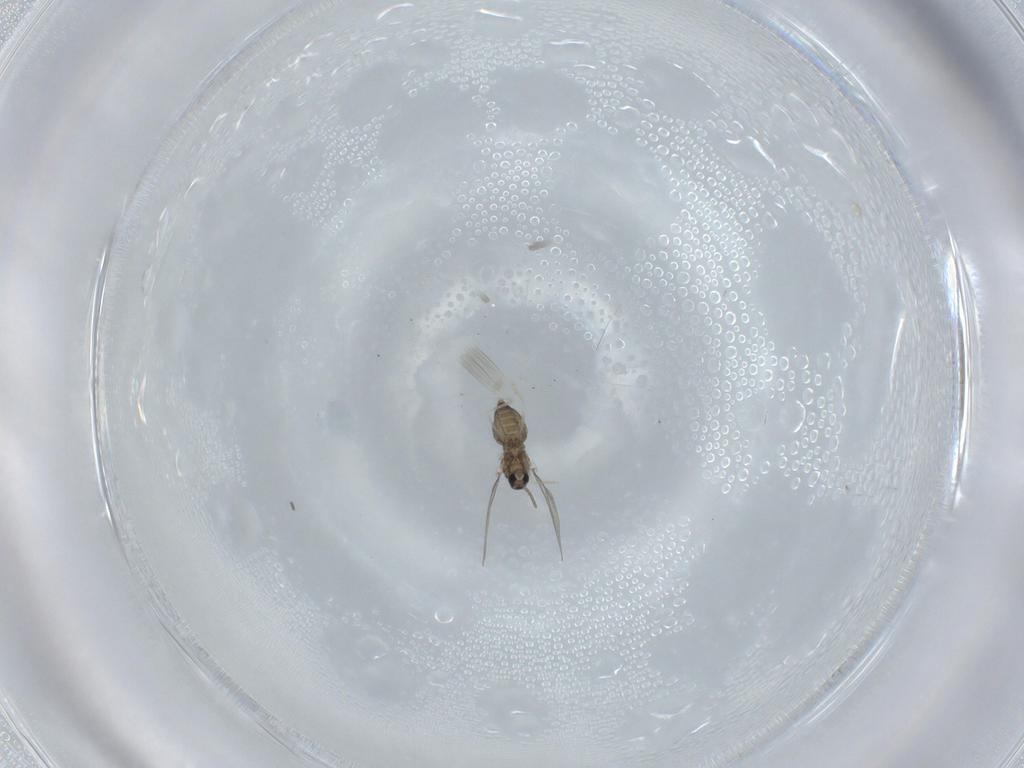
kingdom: Animalia
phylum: Arthropoda
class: Insecta
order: Diptera
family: Cecidomyiidae
